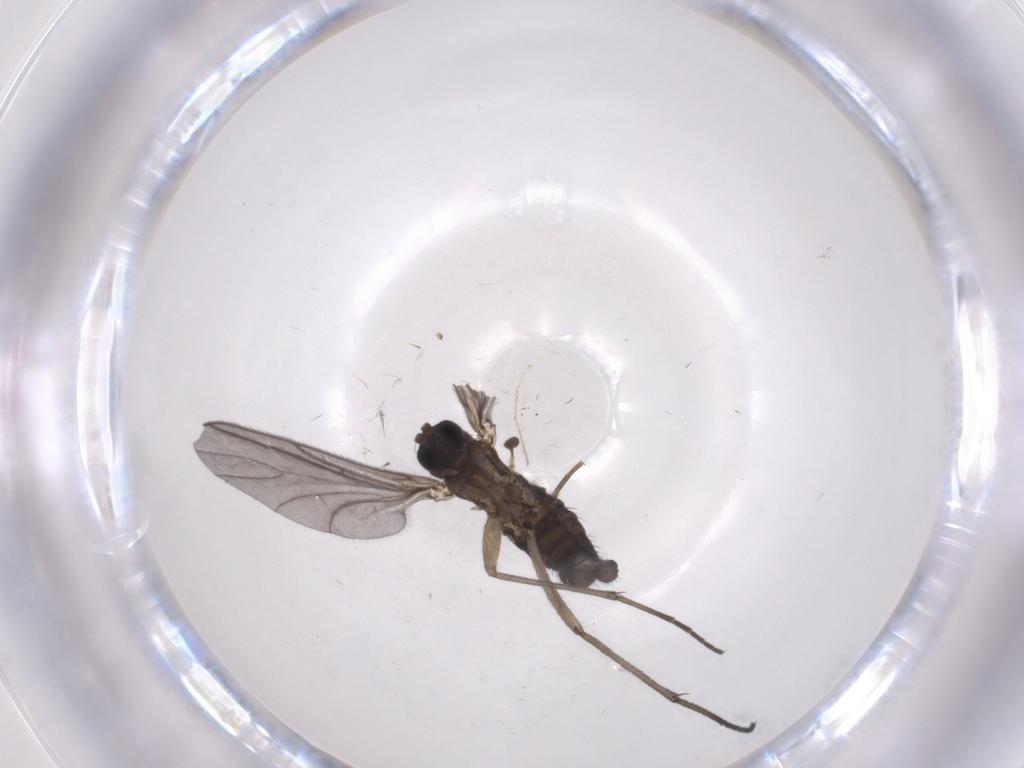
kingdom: Animalia
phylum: Arthropoda
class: Insecta
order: Diptera
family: Sciaridae
